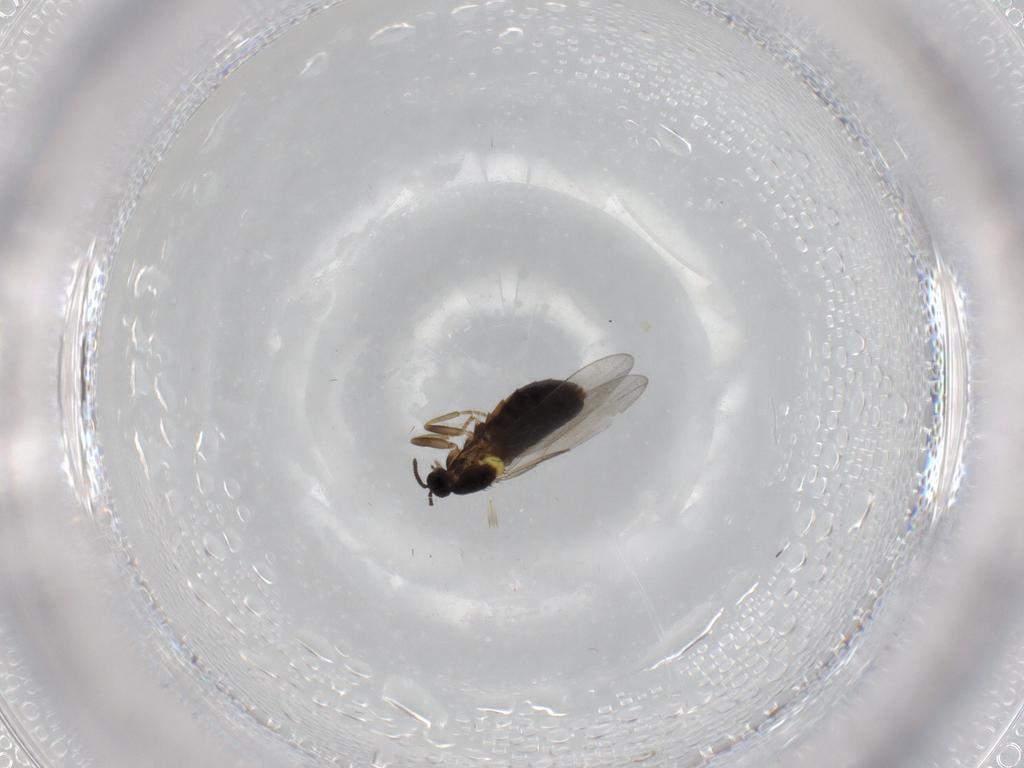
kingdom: Animalia
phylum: Arthropoda
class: Insecta
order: Diptera
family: Scatopsidae
